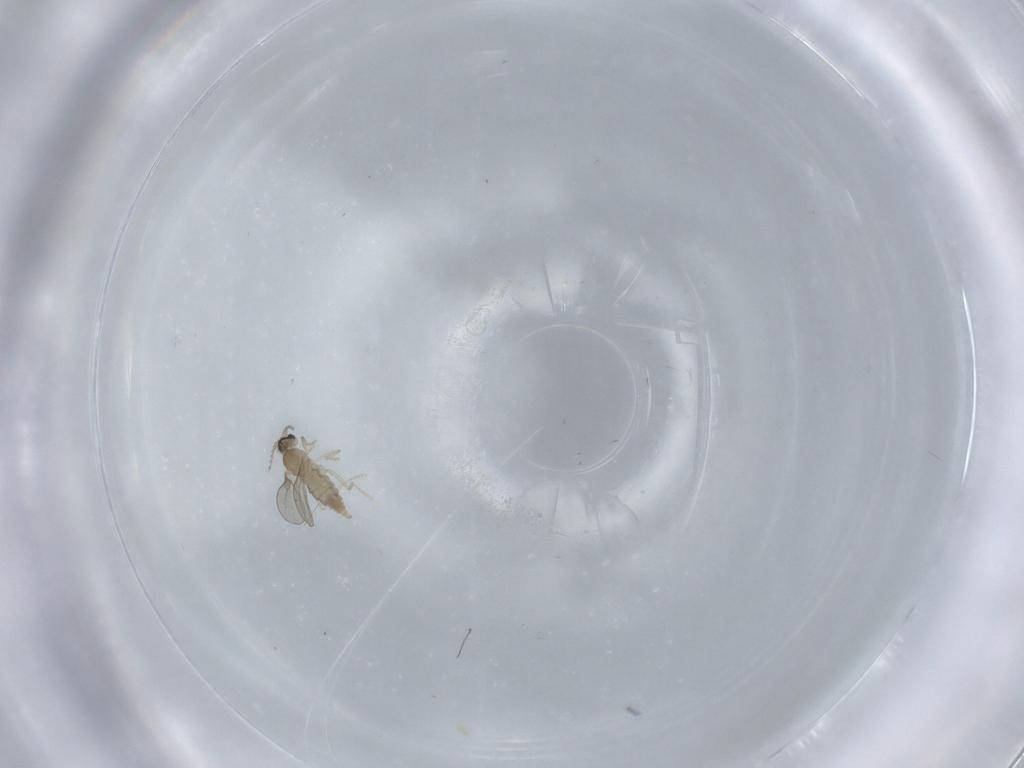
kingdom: Animalia
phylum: Arthropoda
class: Insecta
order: Diptera
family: Cecidomyiidae
